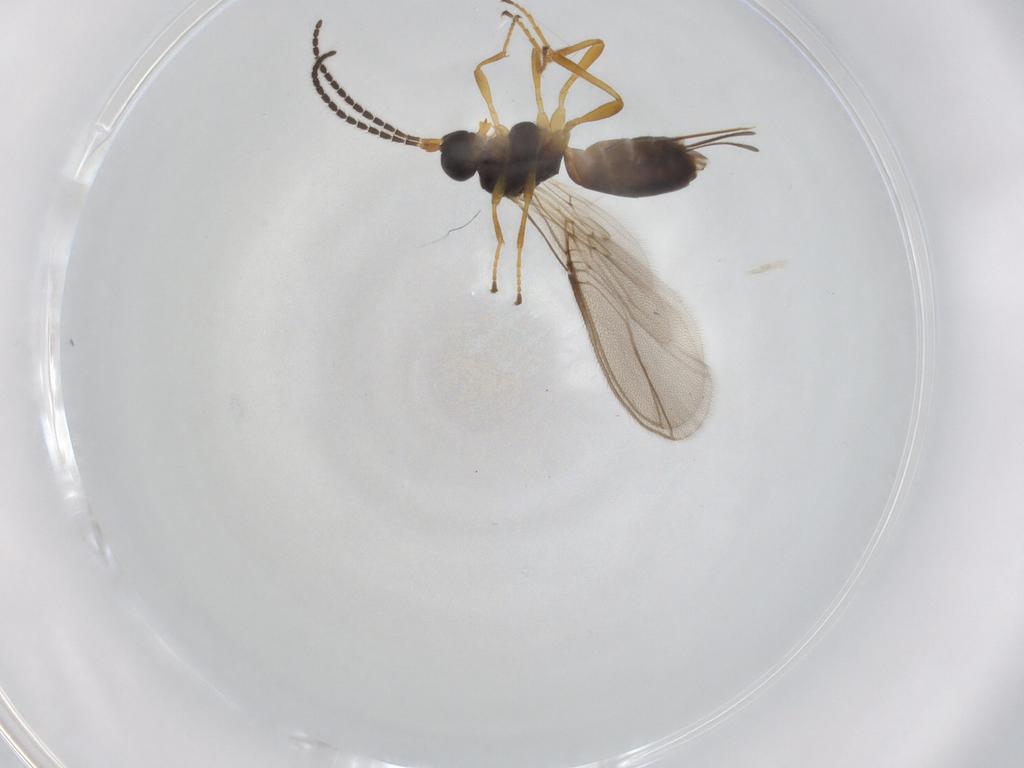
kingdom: Animalia
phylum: Arthropoda
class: Insecta
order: Hymenoptera
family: Braconidae
